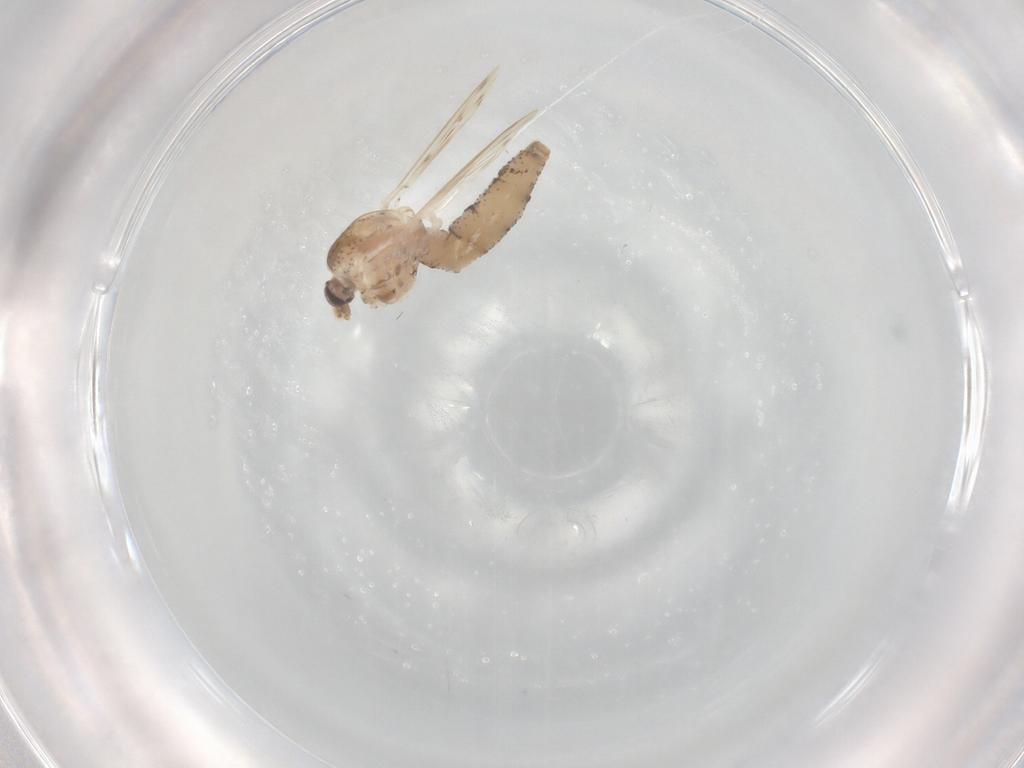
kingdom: Animalia
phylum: Arthropoda
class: Insecta
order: Diptera
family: Chaoboridae
